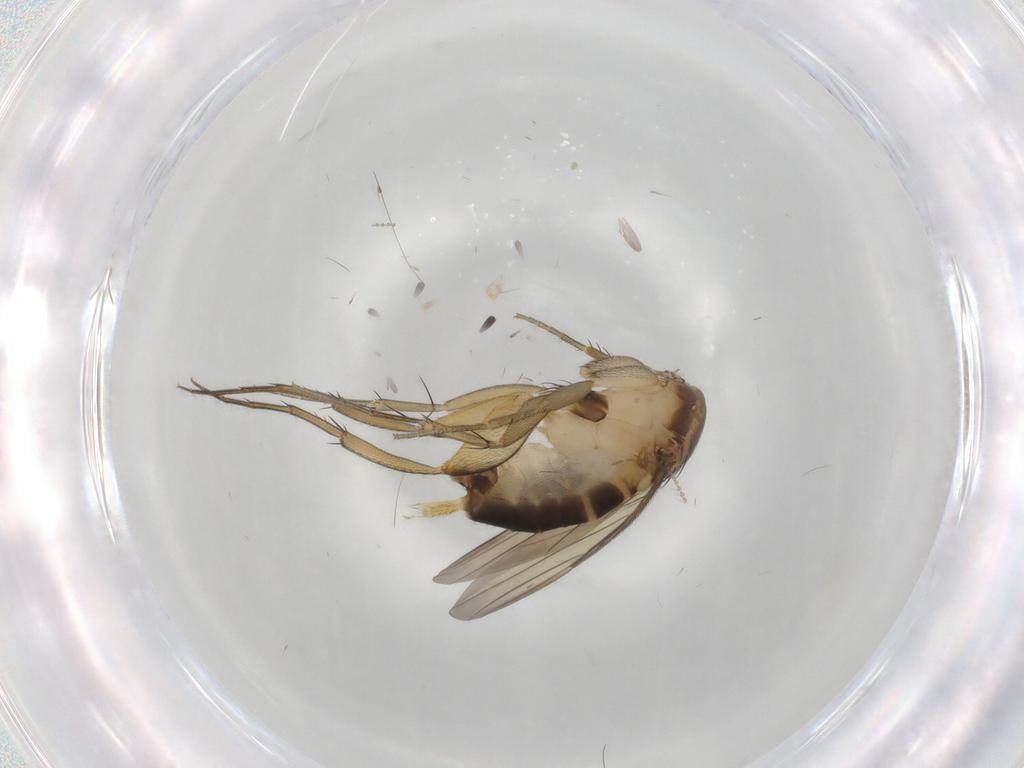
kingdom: Animalia
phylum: Arthropoda
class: Insecta
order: Diptera
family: Phoridae
